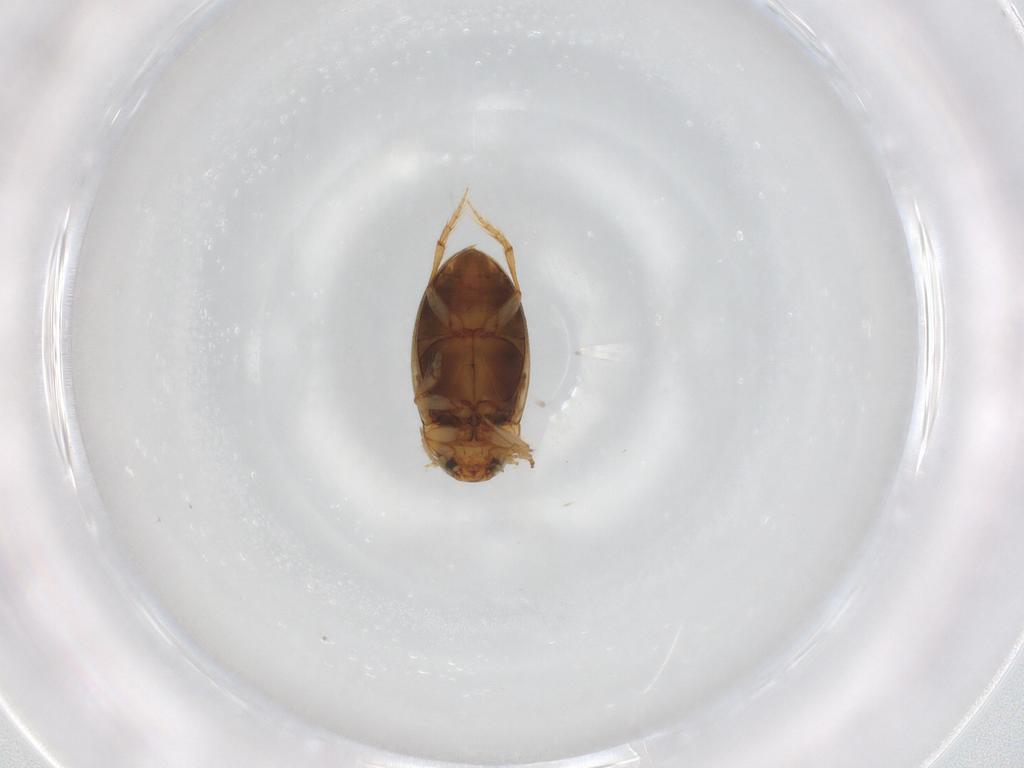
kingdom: Animalia
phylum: Arthropoda
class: Insecta
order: Coleoptera
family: Dytiscidae
